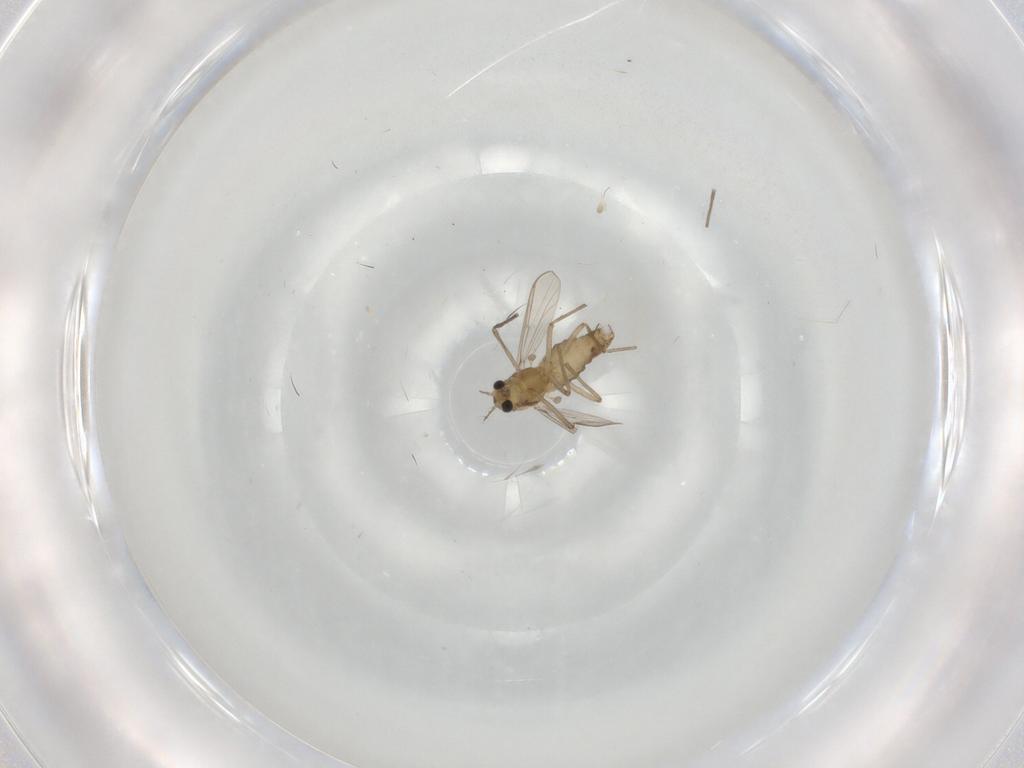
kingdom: Animalia
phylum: Arthropoda
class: Insecta
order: Diptera
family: Chironomidae
